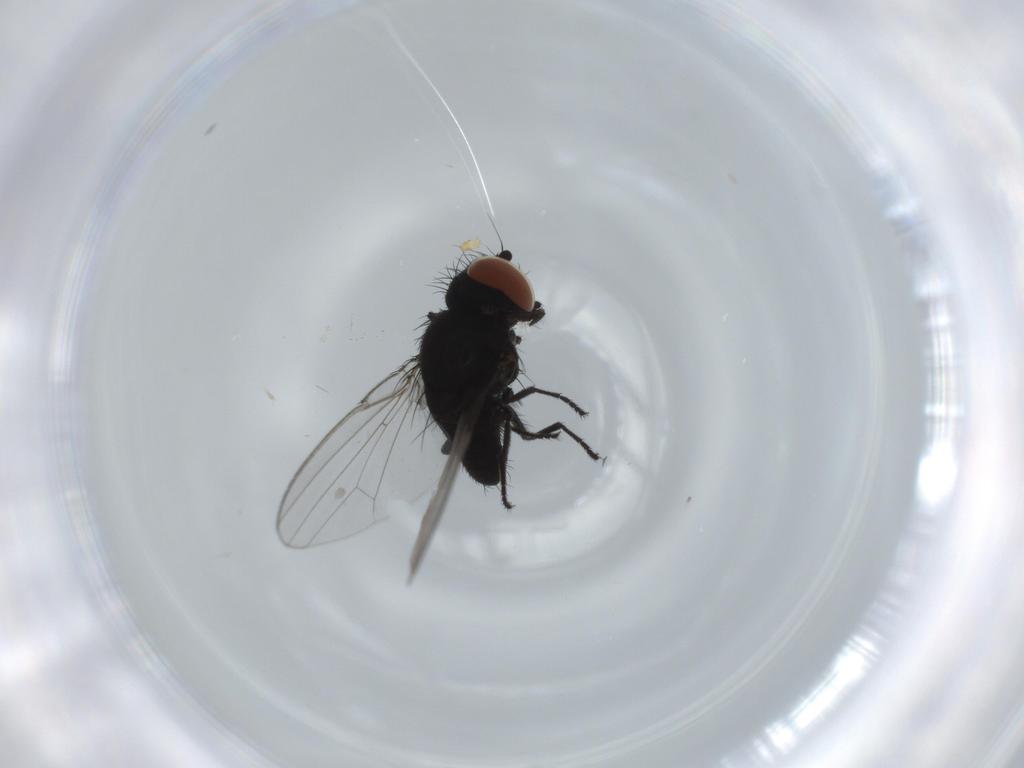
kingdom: Animalia
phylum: Arthropoda
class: Insecta
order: Diptera
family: Milichiidae
